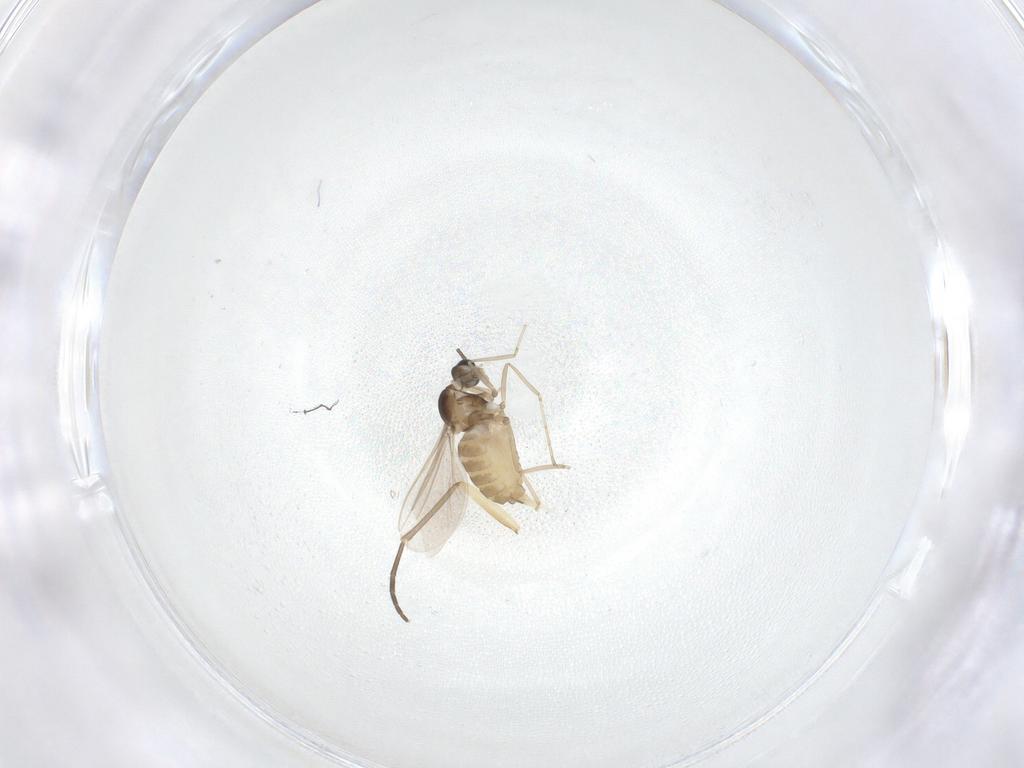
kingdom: Animalia
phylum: Arthropoda
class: Insecta
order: Diptera
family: Cecidomyiidae
